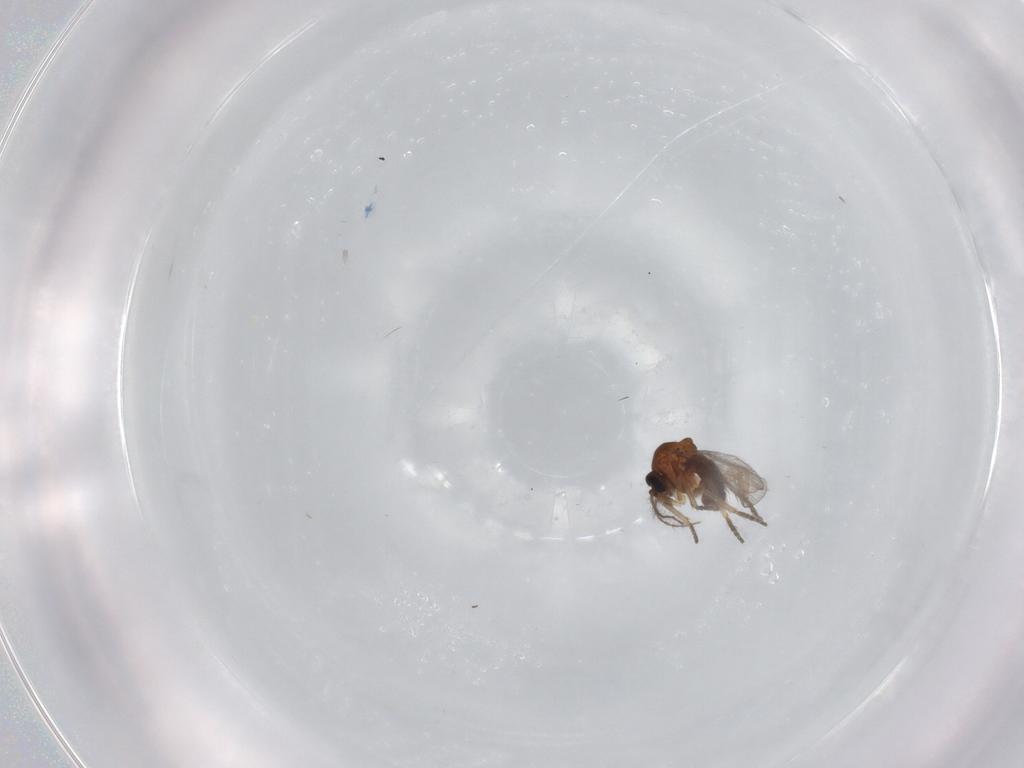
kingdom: Animalia
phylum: Arthropoda
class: Insecta
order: Diptera
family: Ceratopogonidae
